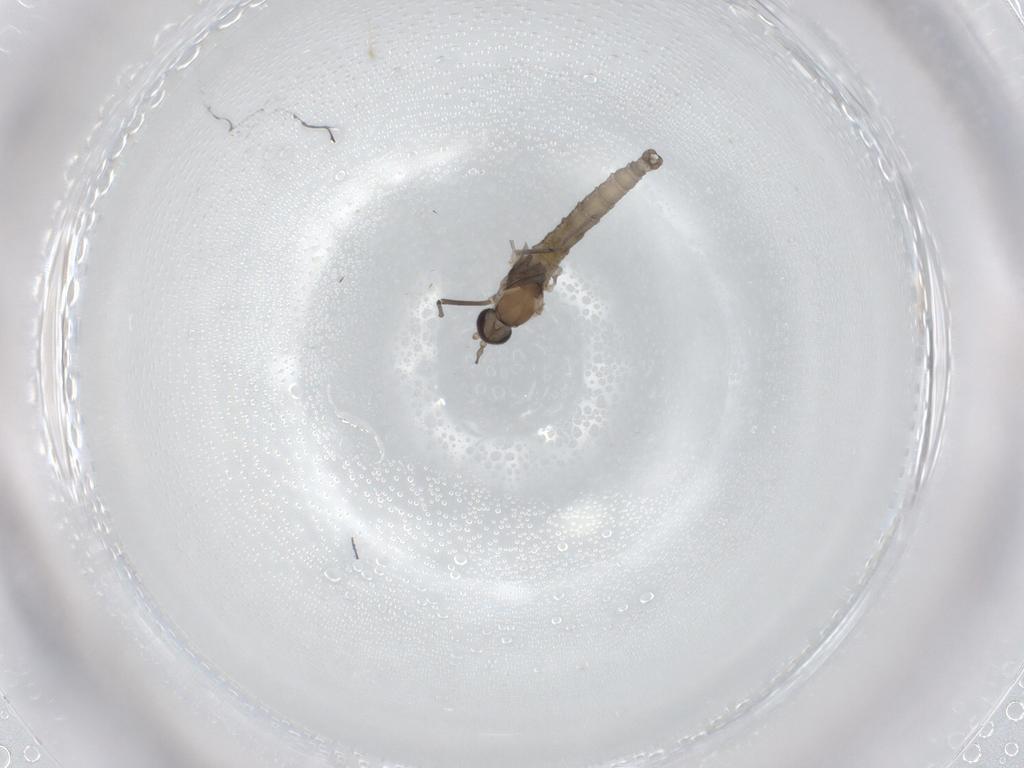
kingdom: Animalia
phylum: Arthropoda
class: Insecta
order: Diptera
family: Cecidomyiidae
